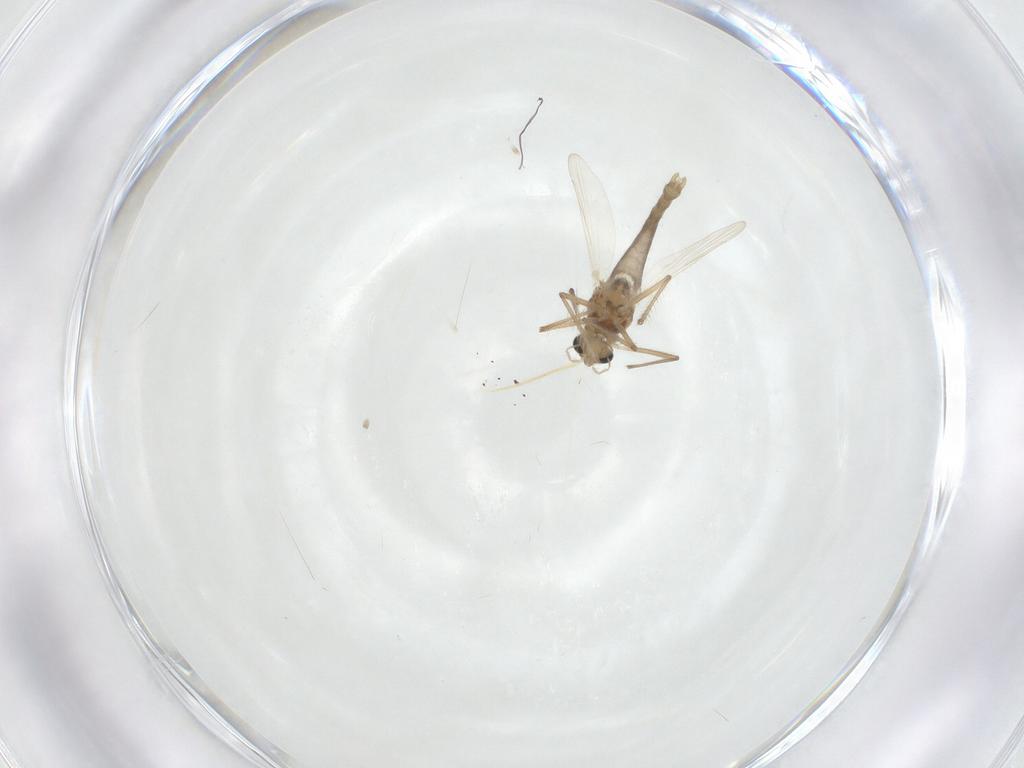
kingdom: Animalia
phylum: Arthropoda
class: Insecta
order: Diptera
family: Chironomidae
